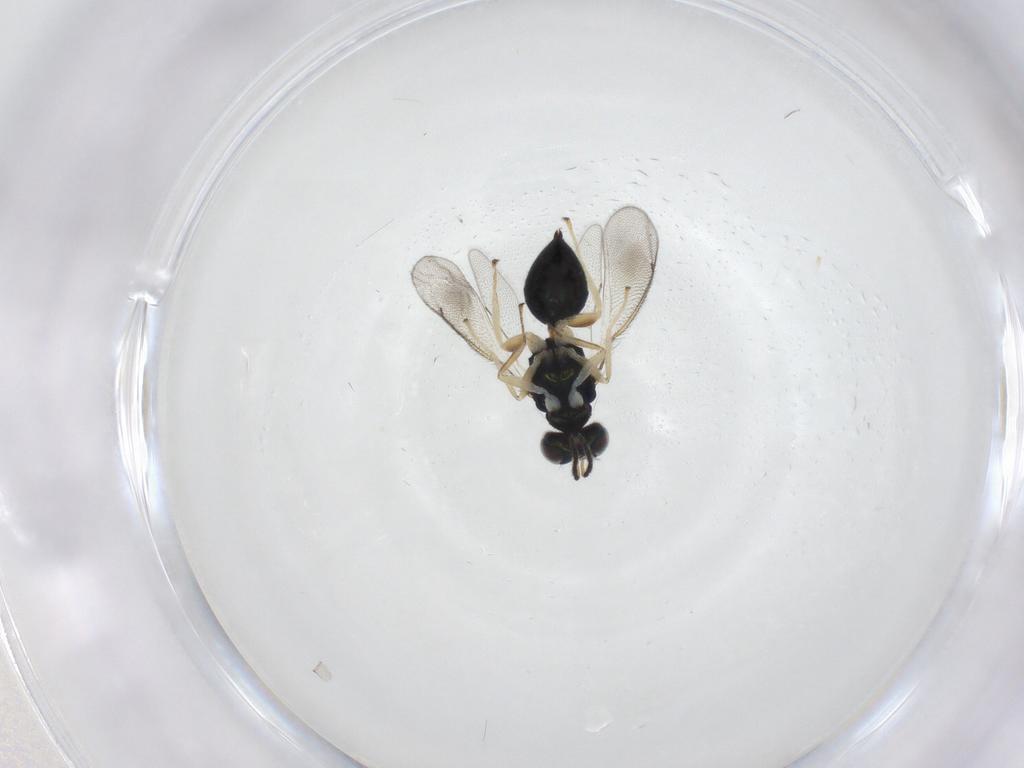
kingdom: Animalia
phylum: Arthropoda
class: Insecta
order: Hymenoptera
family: Eulophidae
